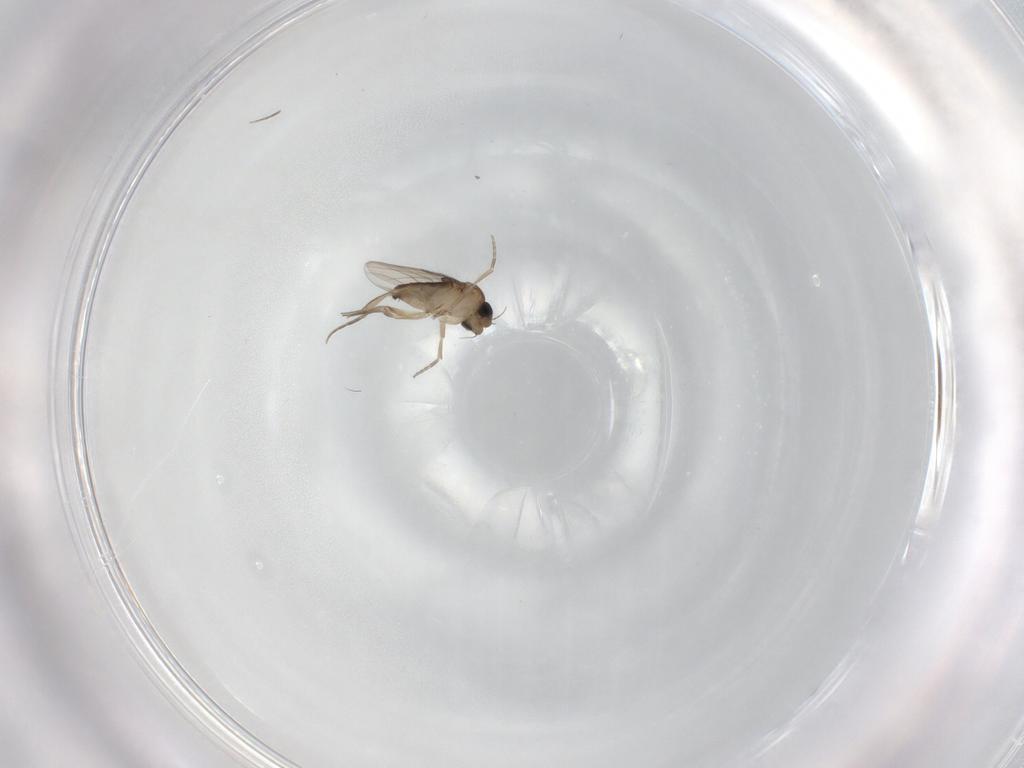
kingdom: Animalia
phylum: Arthropoda
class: Insecta
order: Diptera
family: Phoridae
